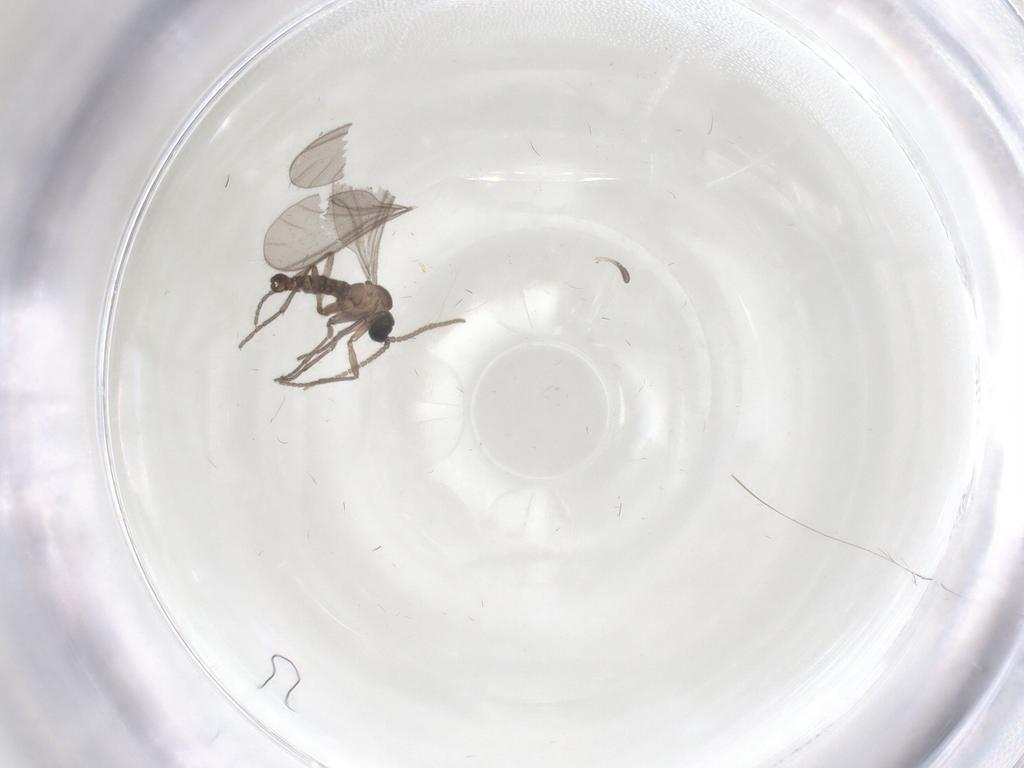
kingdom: Animalia
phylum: Arthropoda
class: Insecta
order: Diptera
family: Sciaridae
